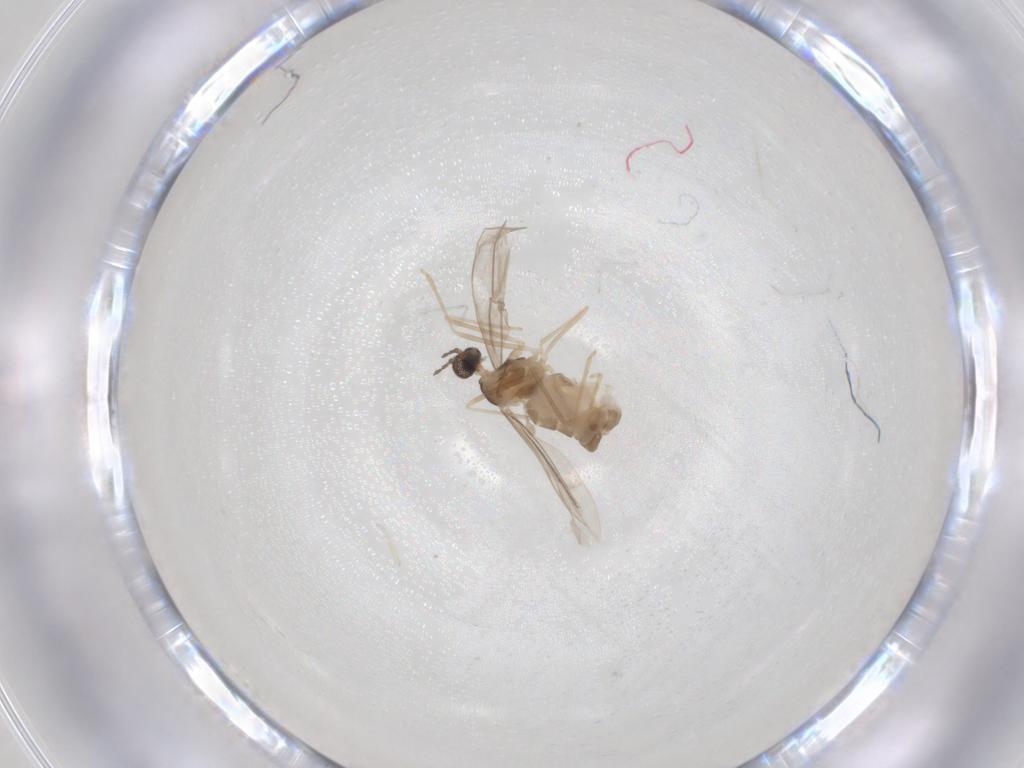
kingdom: Animalia
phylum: Arthropoda
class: Insecta
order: Diptera
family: Cecidomyiidae
